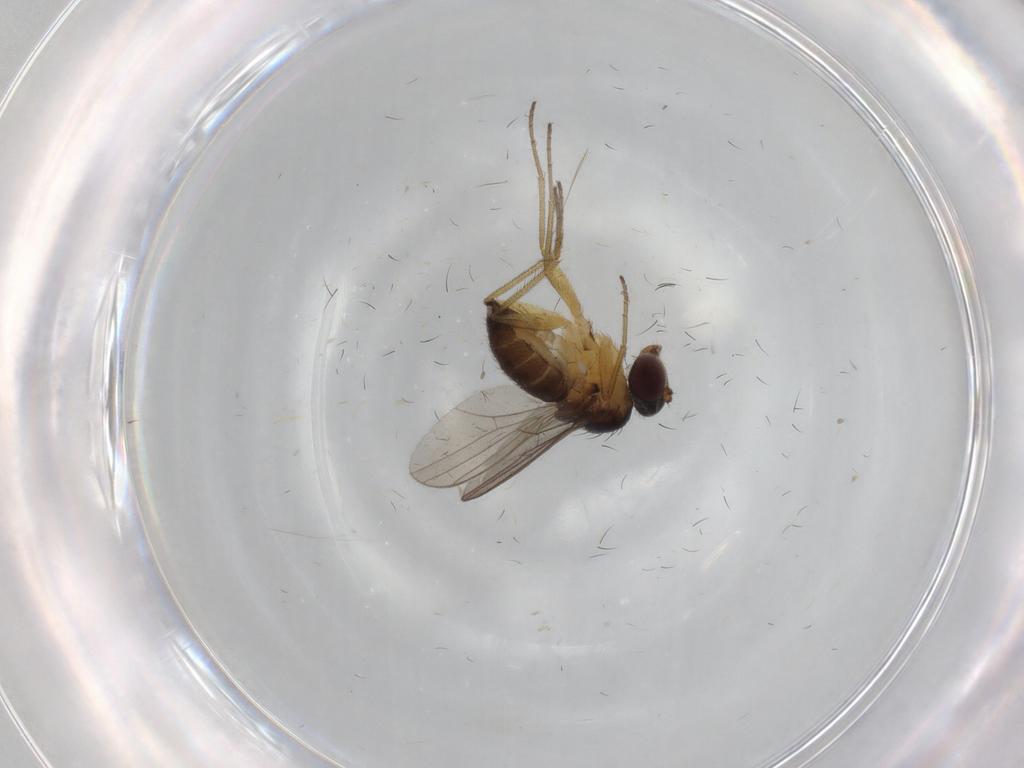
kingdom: Animalia
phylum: Arthropoda
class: Insecta
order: Diptera
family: Dolichopodidae
